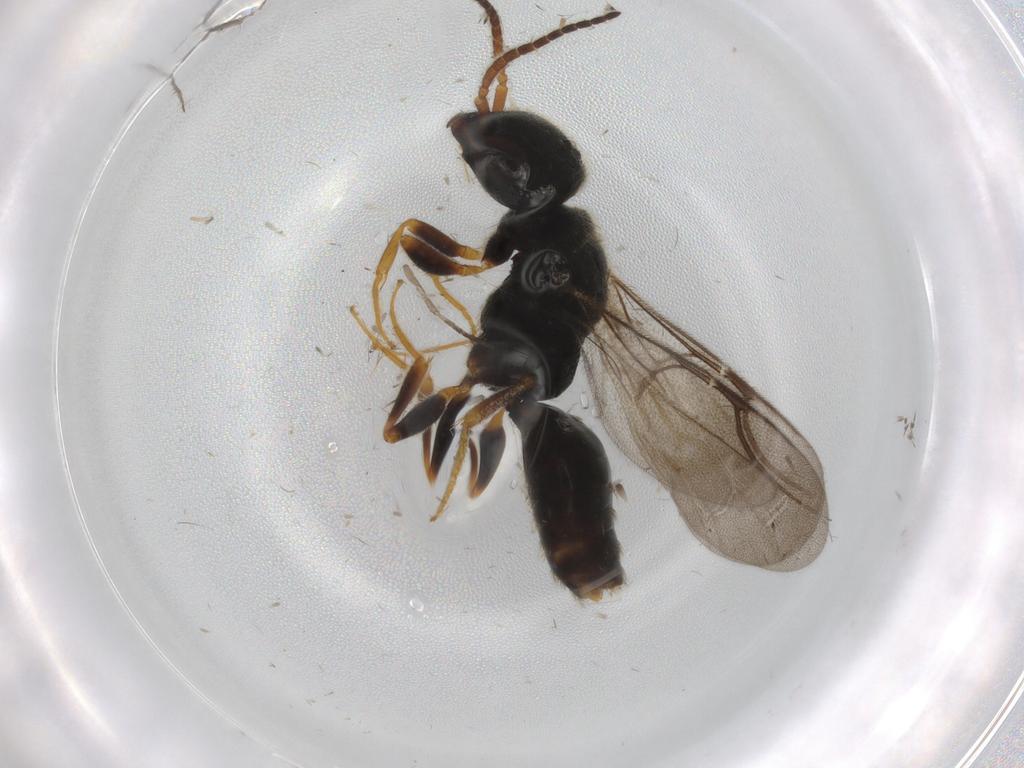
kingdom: Animalia
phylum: Arthropoda
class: Insecta
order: Hymenoptera
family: Bethylidae
